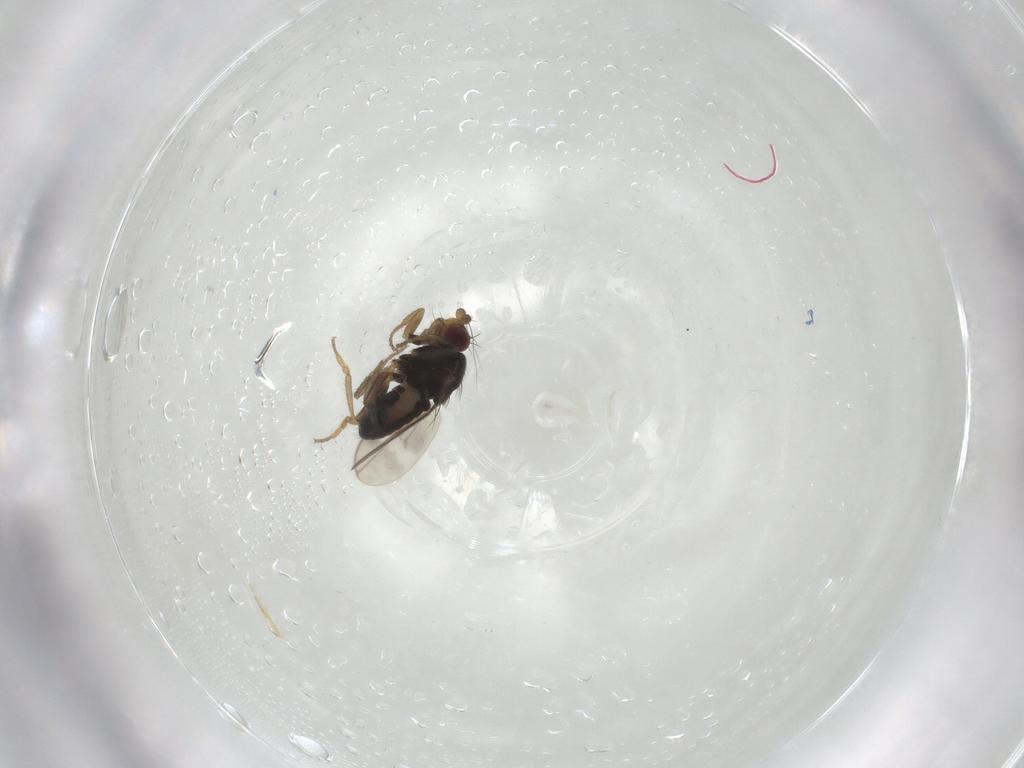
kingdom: Animalia
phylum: Arthropoda
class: Insecta
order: Diptera
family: Sphaeroceridae
